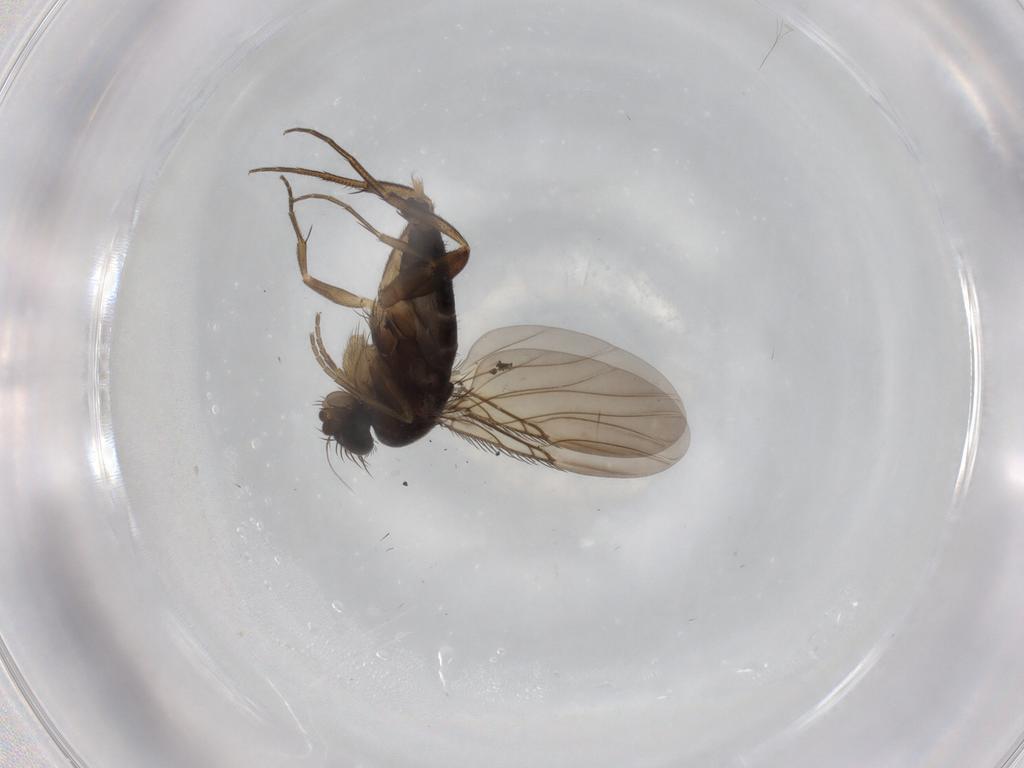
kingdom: Animalia
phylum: Arthropoda
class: Insecta
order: Diptera
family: Phoridae
